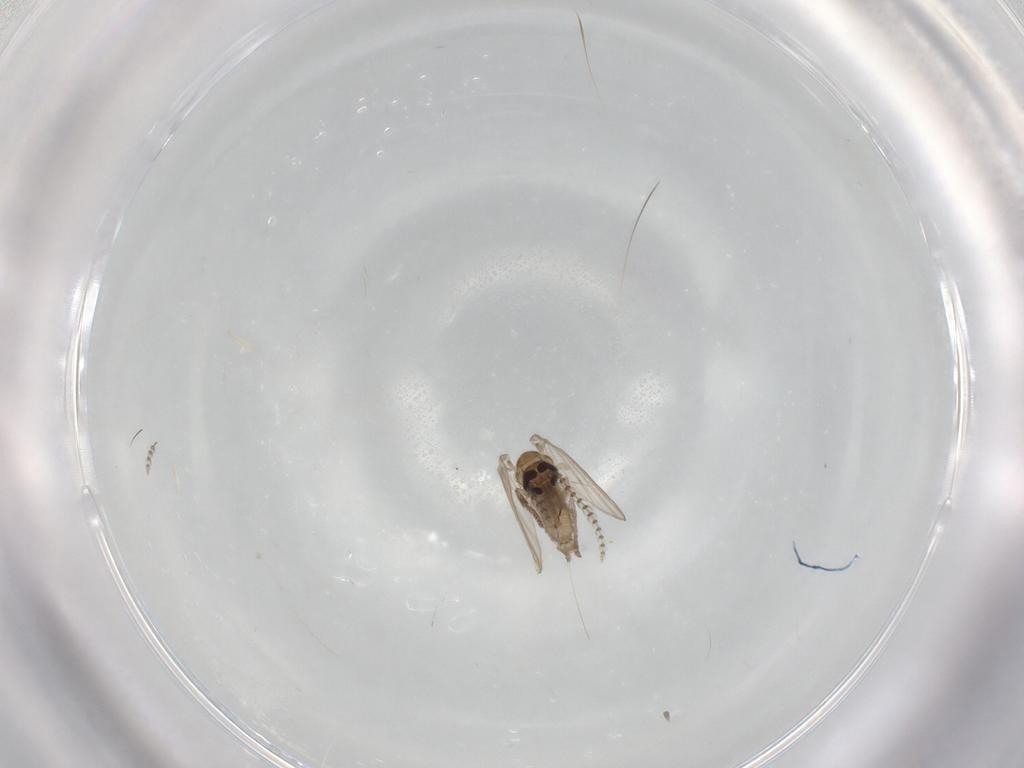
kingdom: Animalia
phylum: Arthropoda
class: Insecta
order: Diptera
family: Psychodidae
